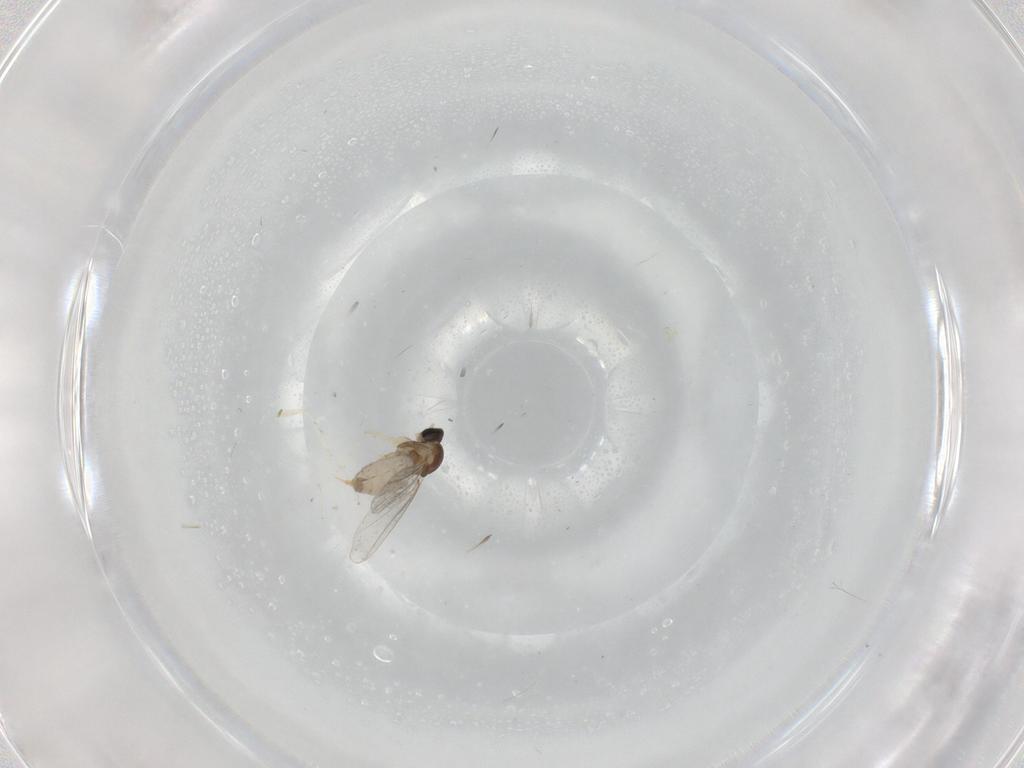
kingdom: Animalia
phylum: Arthropoda
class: Insecta
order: Diptera
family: Cecidomyiidae
